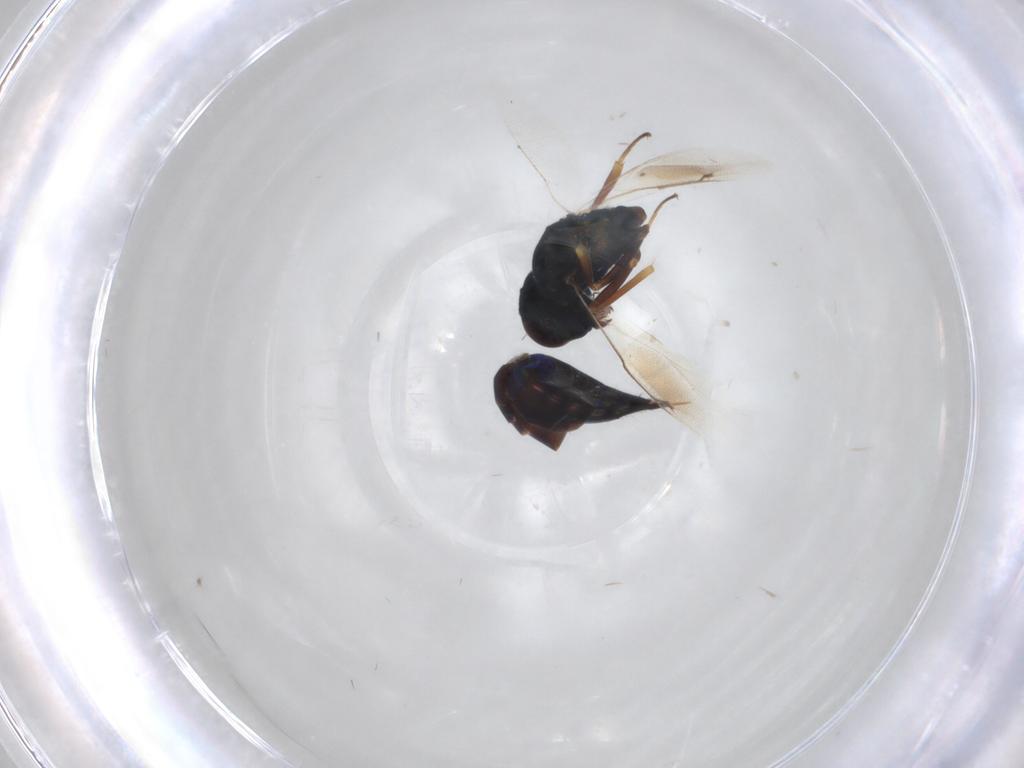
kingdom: Animalia
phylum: Arthropoda
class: Insecta
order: Hymenoptera
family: Pteromalidae
